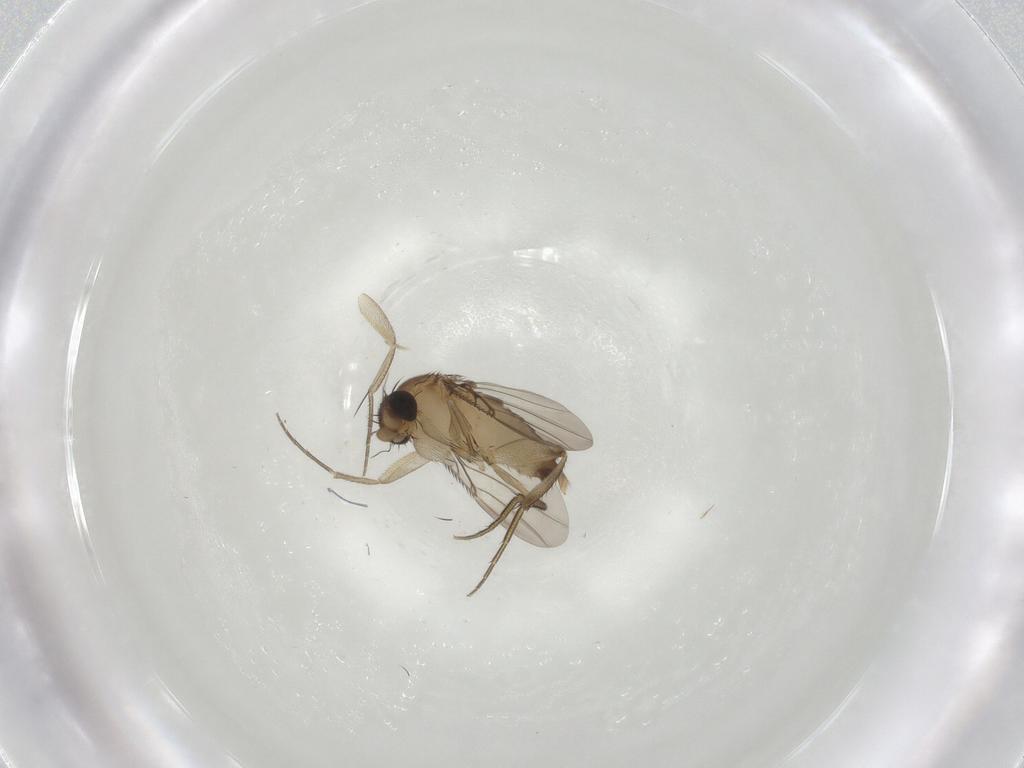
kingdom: Animalia
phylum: Arthropoda
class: Insecta
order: Diptera
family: Phoridae
